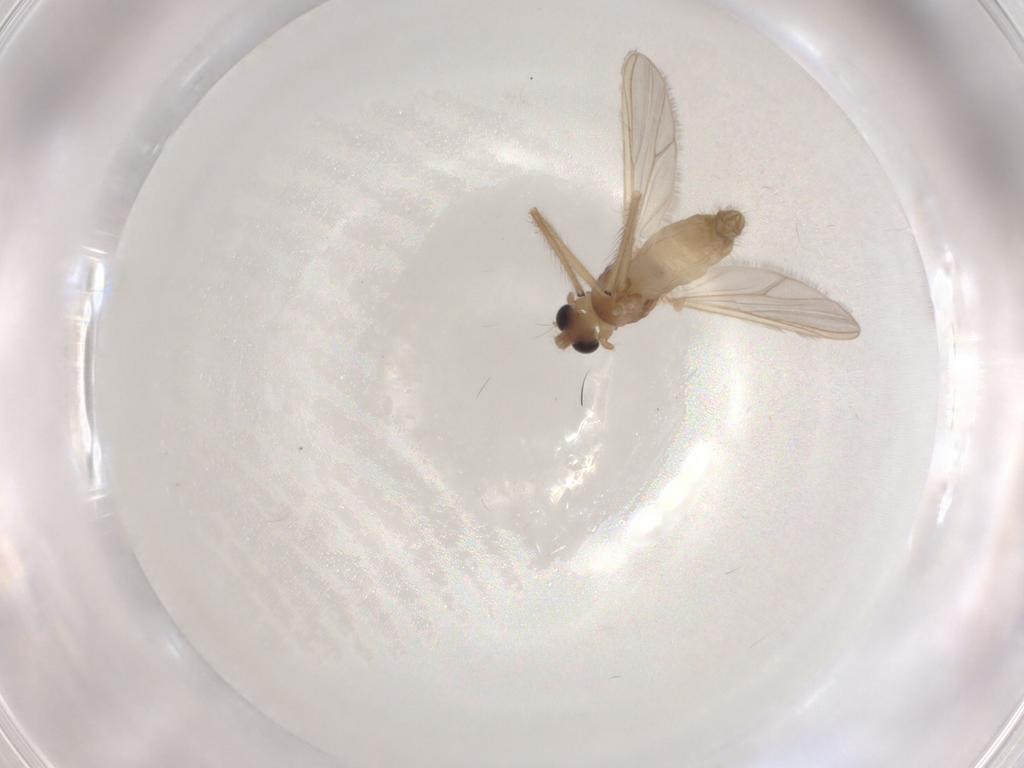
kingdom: Animalia
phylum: Arthropoda
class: Insecta
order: Diptera
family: Chironomidae
